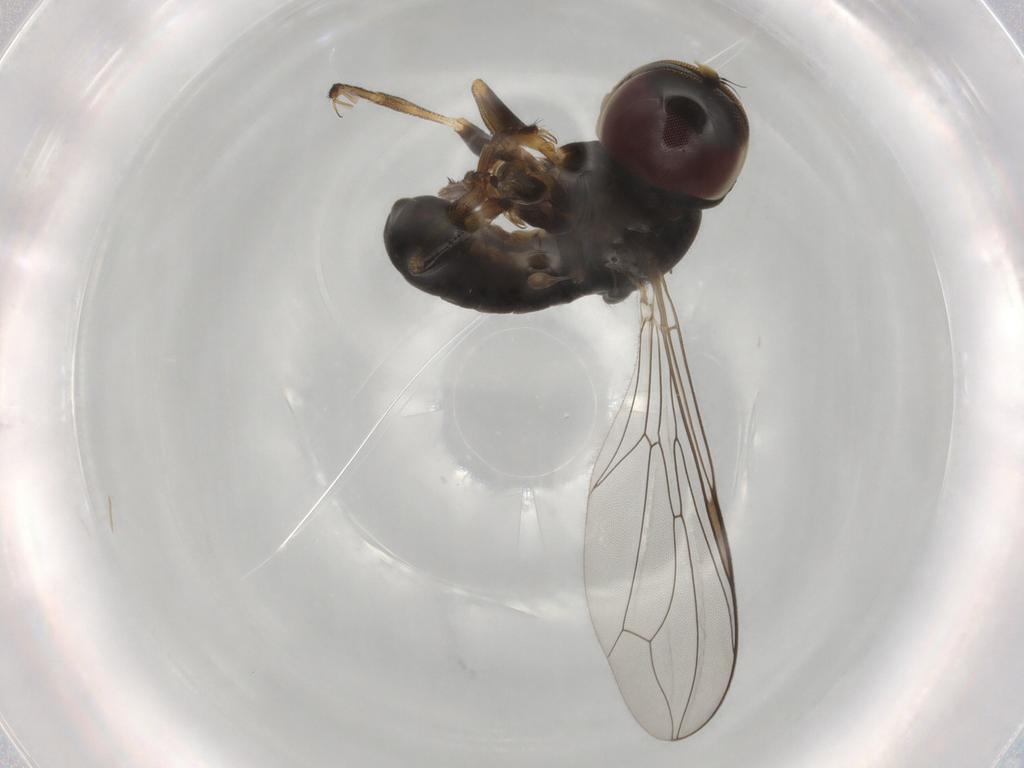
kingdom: Animalia
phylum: Arthropoda
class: Insecta
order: Diptera
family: Pipunculidae
